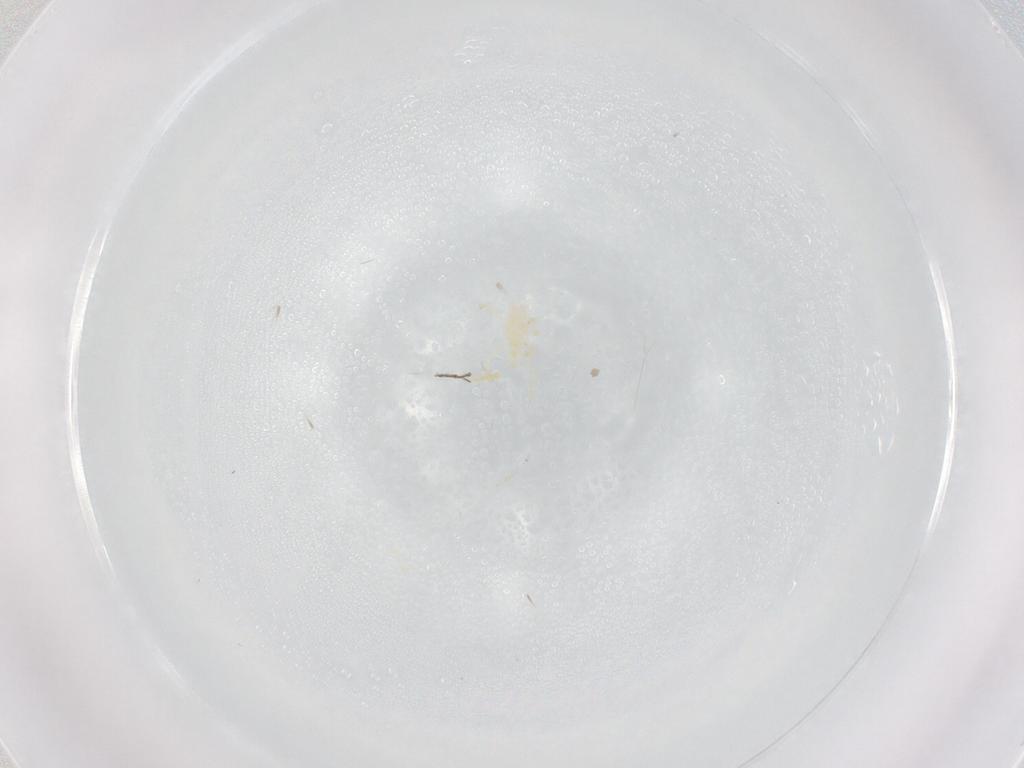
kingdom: Animalia
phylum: Arthropoda
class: Arachnida
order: Trombidiformes
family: Erythraeidae
